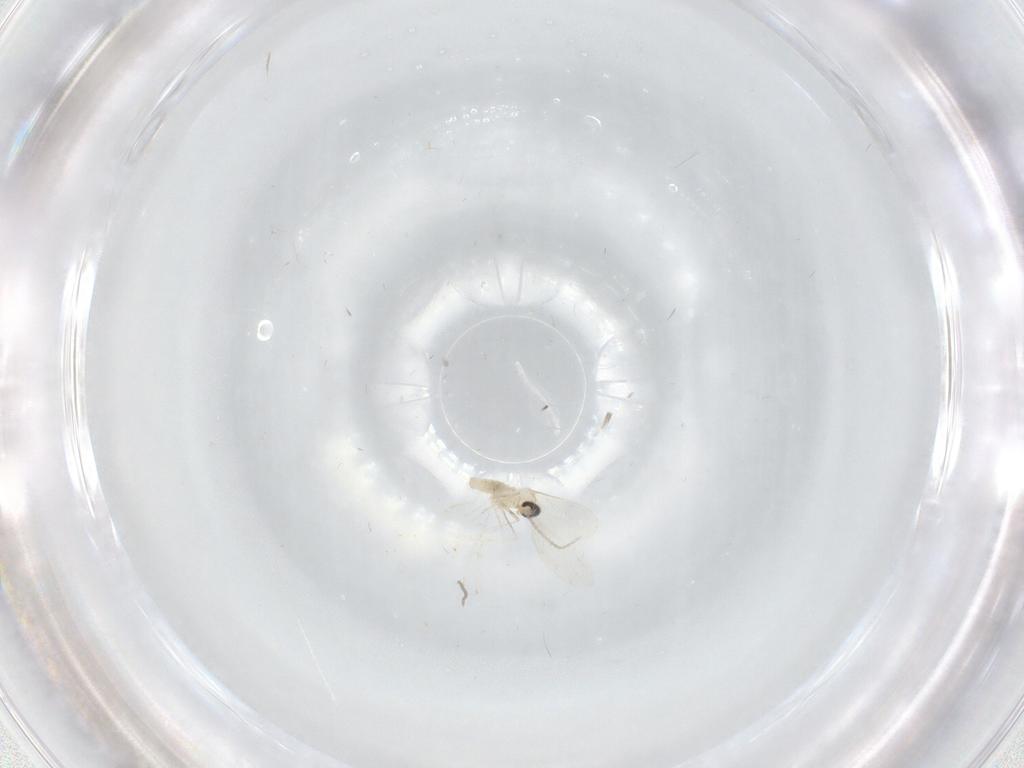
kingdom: Animalia
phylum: Arthropoda
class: Insecta
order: Diptera
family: Cecidomyiidae
